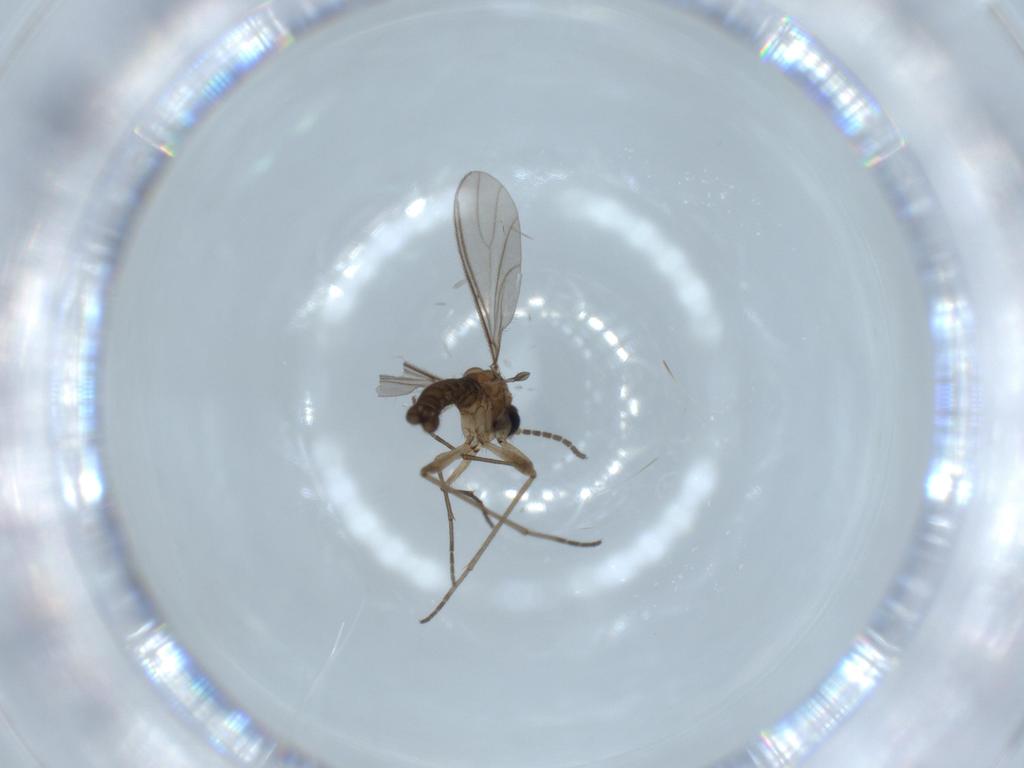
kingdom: Animalia
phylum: Arthropoda
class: Insecta
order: Diptera
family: Sciaridae
